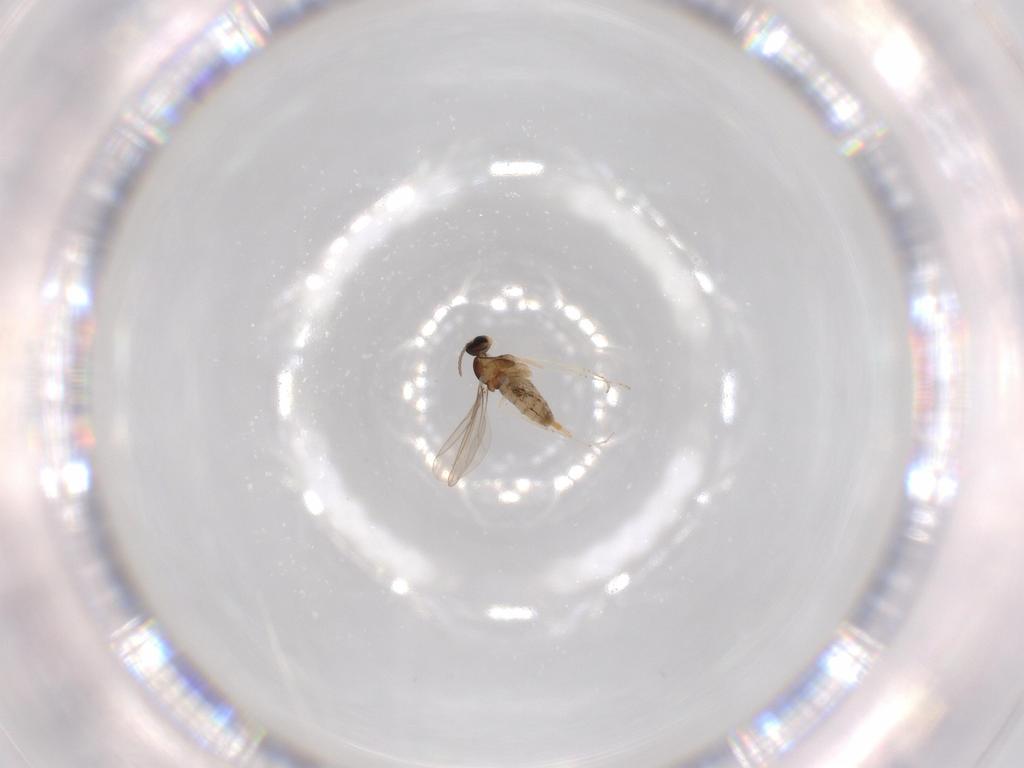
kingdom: Animalia
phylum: Arthropoda
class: Insecta
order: Diptera
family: Cecidomyiidae
